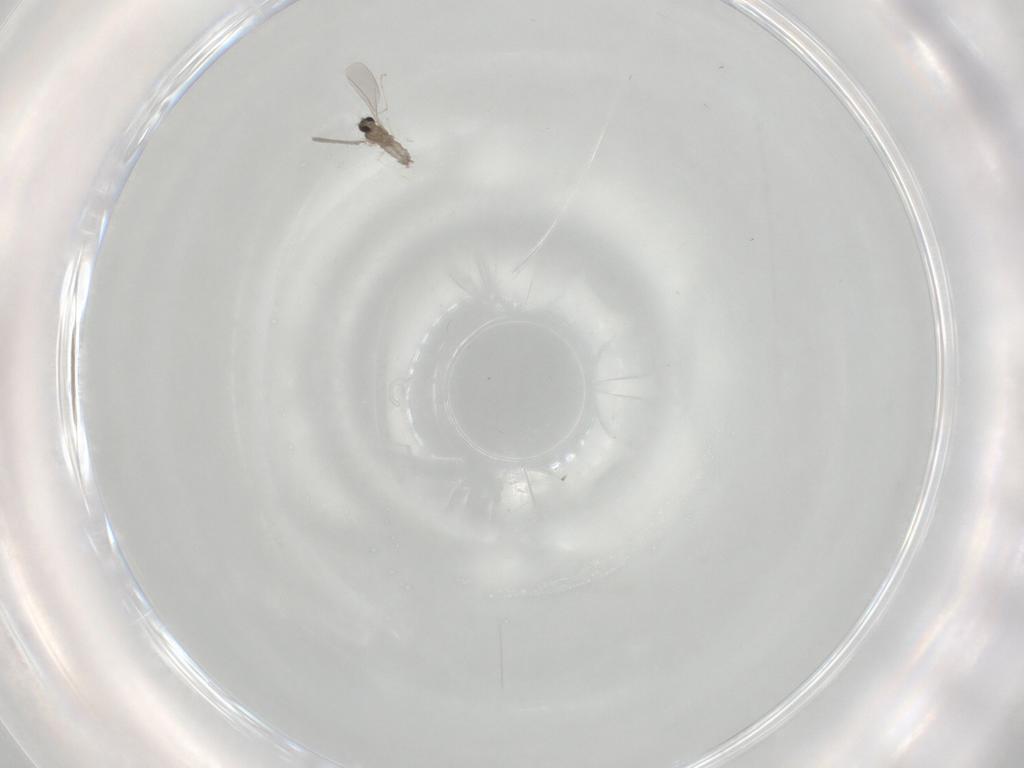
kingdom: Animalia
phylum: Arthropoda
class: Insecta
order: Diptera
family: Cecidomyiidae
